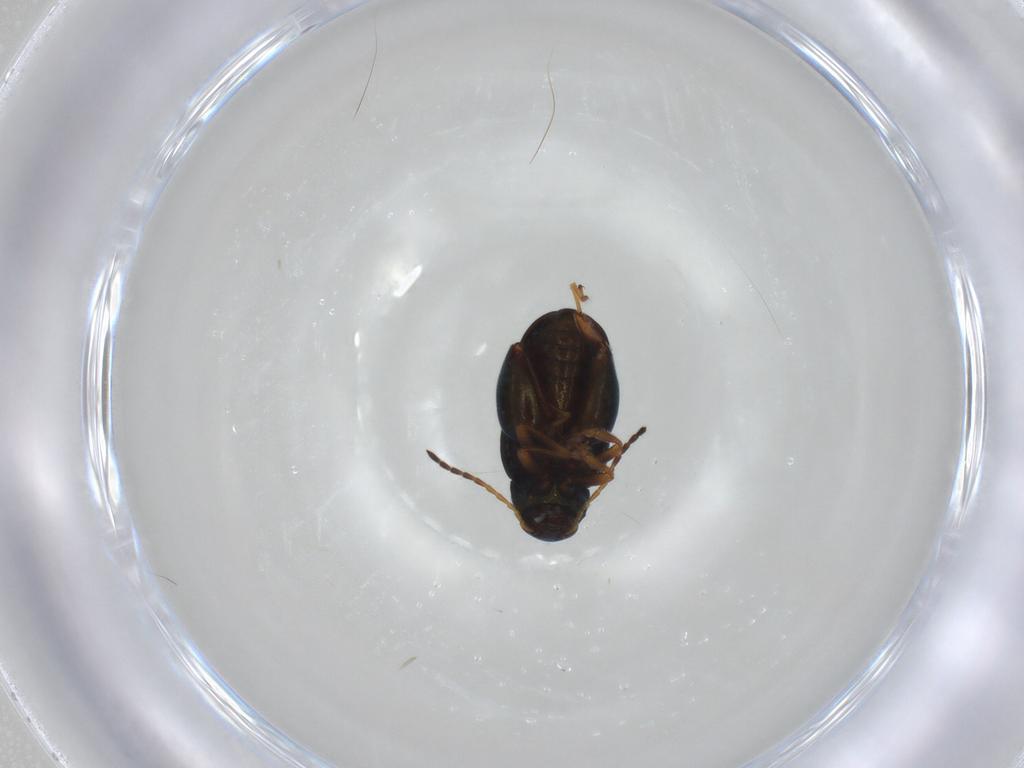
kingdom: Animalia
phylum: Arthropoda
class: Insecta
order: Coleoptera
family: Chrysomelidae
